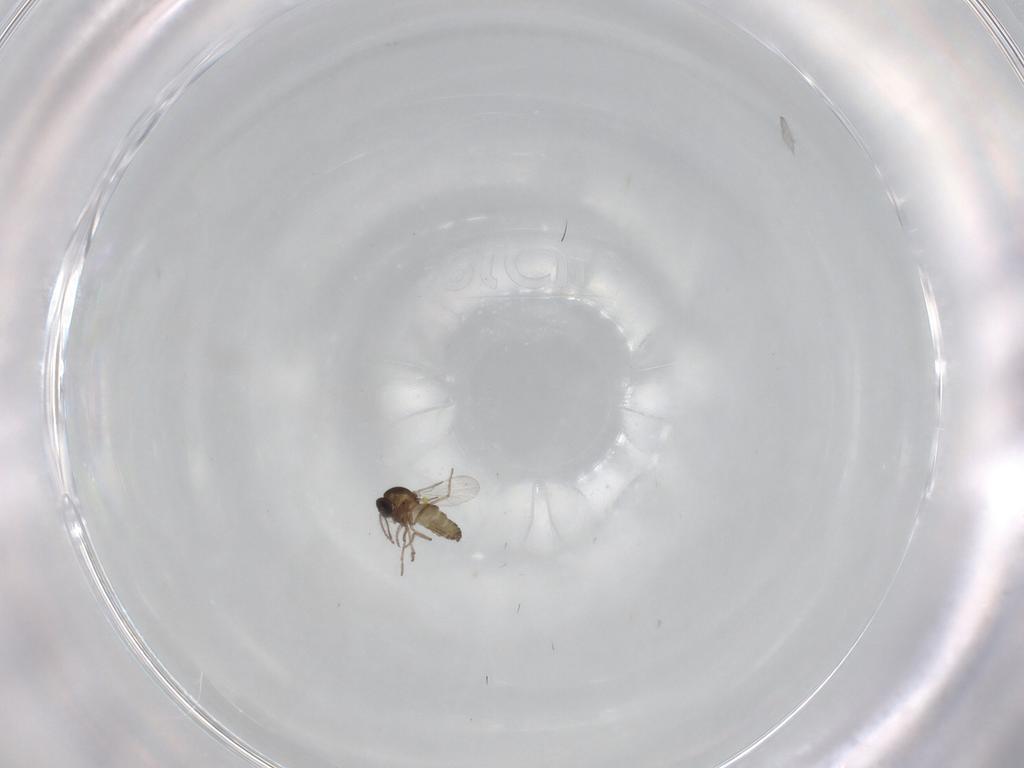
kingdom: Animalia
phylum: Arthropoda
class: Insecta
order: Diptera
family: Ceratopogonidae
